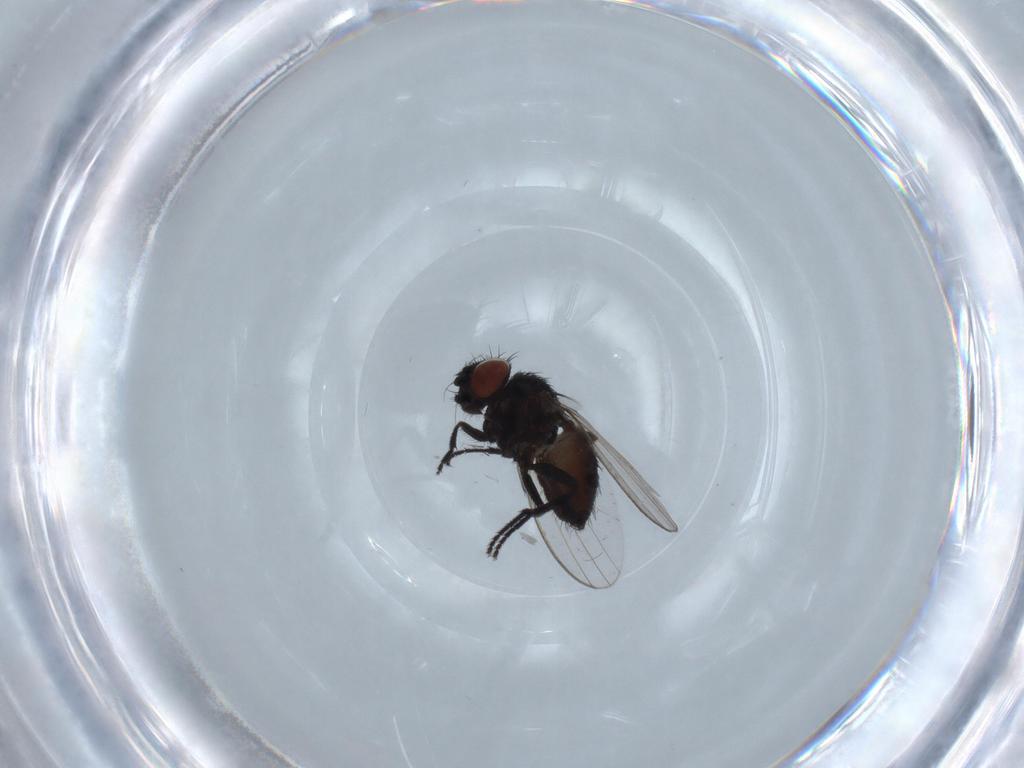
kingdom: Animalia
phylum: Arthropoda
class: Insecta
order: Diptera
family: Milichiidae
